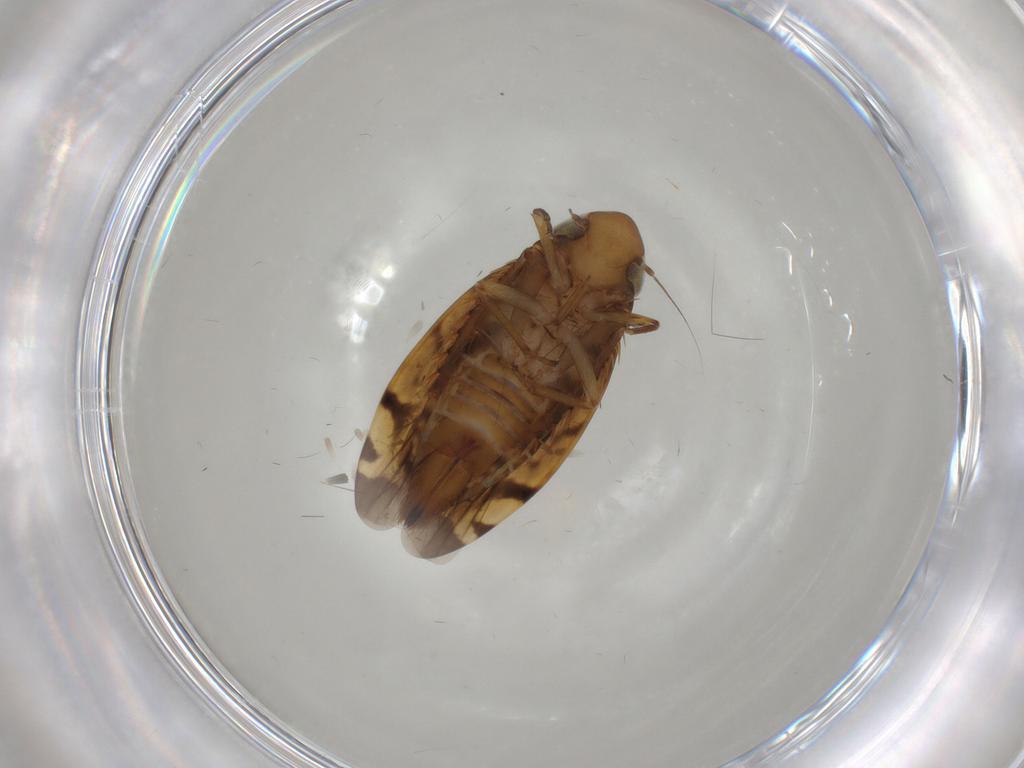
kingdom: Animalia
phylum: Arthropoda
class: Insecta
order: Hemiptera
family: Cicadellidae
